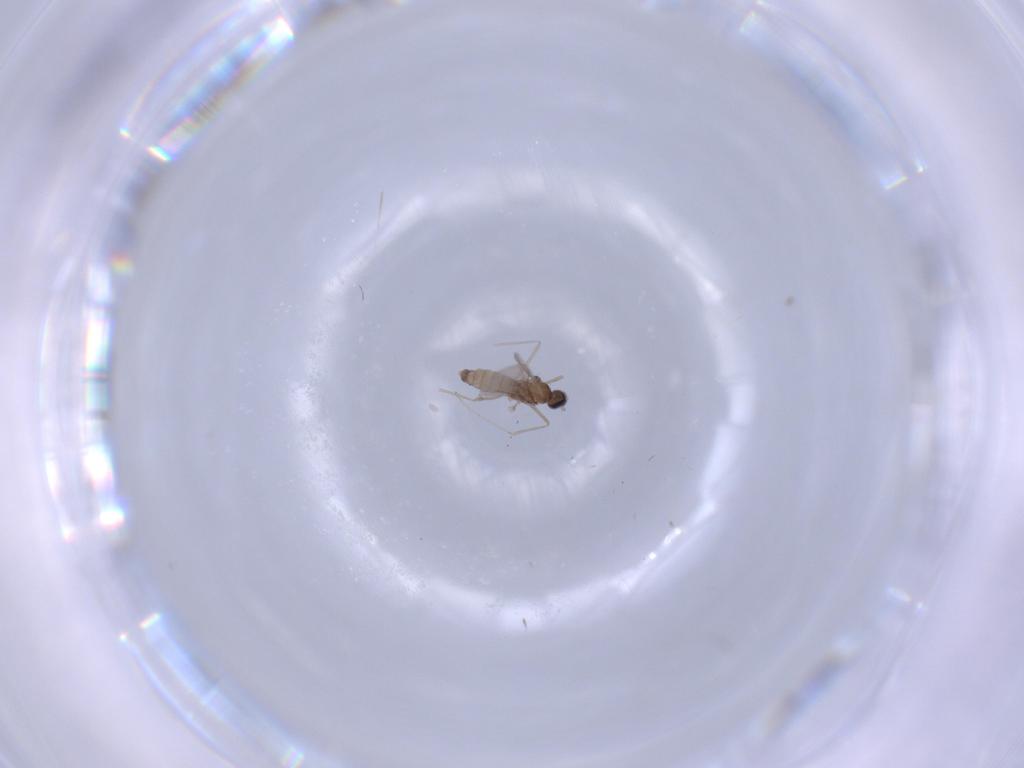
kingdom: Animalia
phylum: Arthropoda
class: Insecta
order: Diptera
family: Cecidomyiidae
